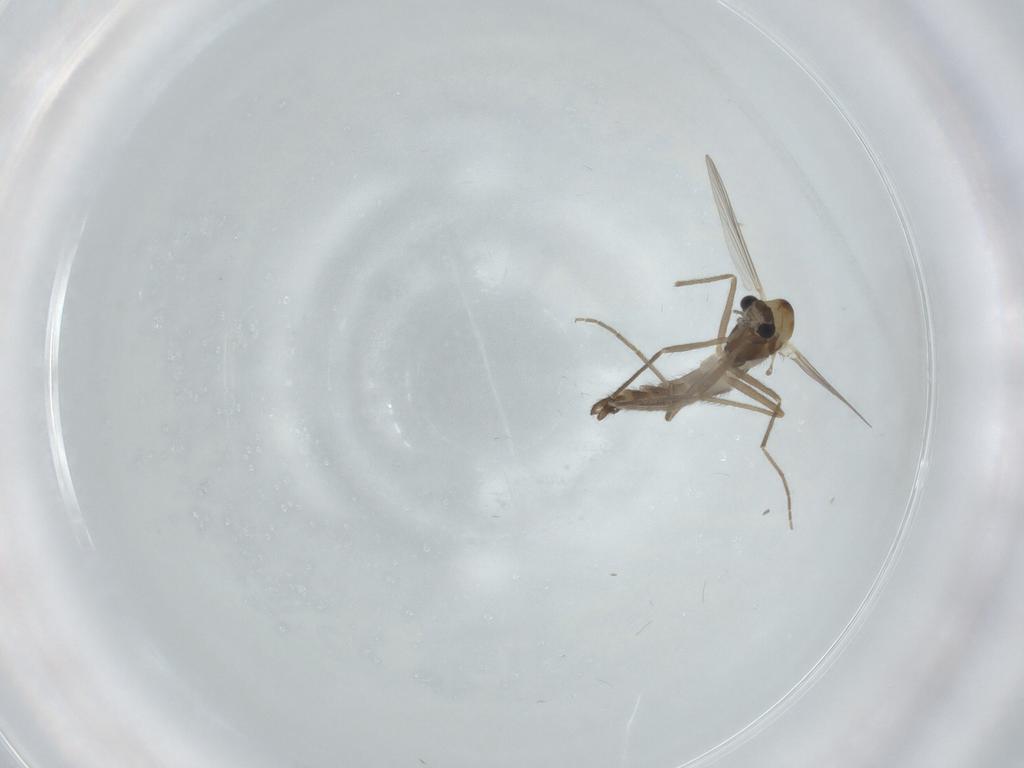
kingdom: Animalia
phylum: Arthropoda
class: Insecta
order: Diptera
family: Chironomidae
